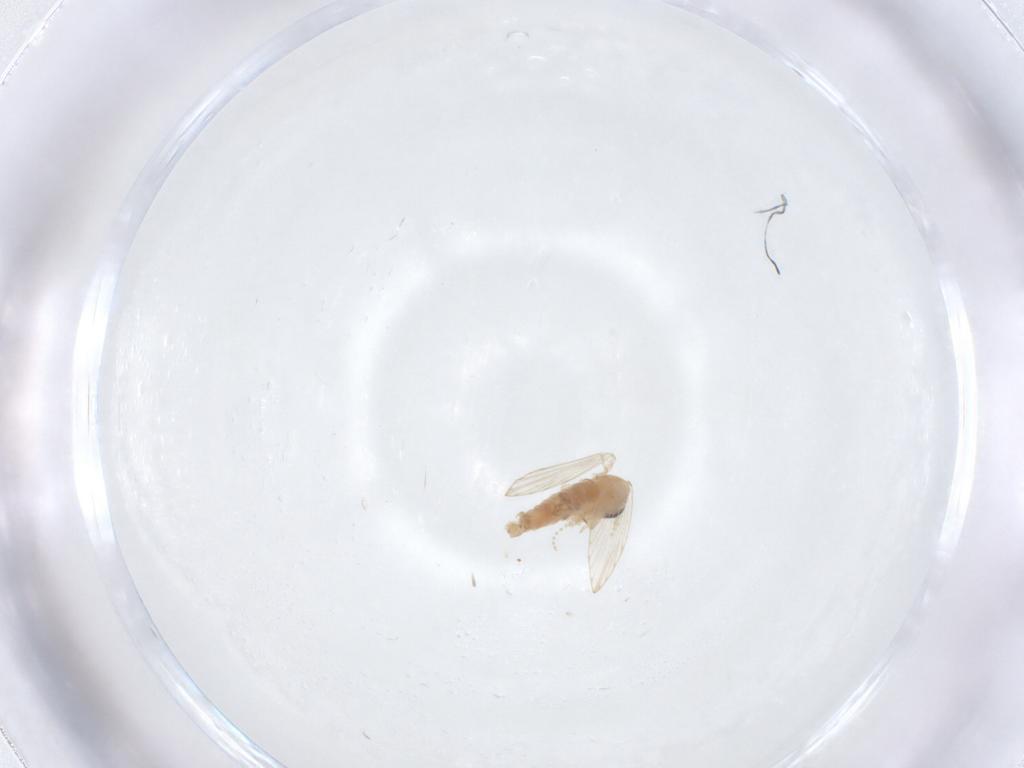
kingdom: Animalia
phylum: Arthropoda
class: Insecta
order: Diptera
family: Psychodidae
